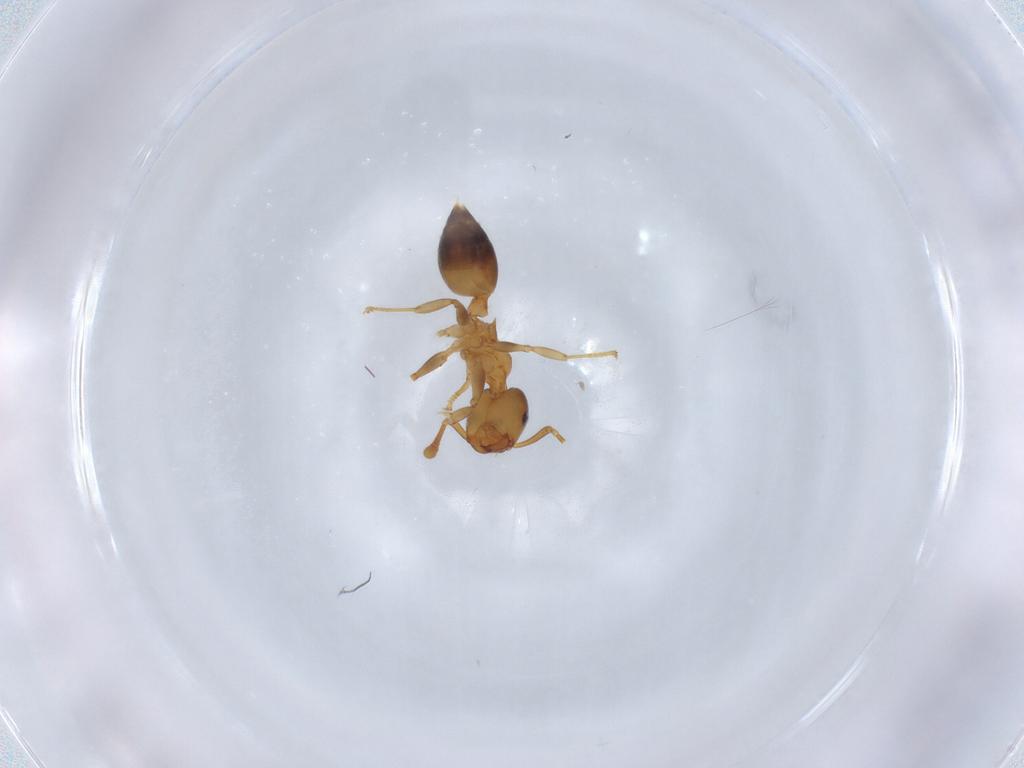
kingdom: Animalia
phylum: Arthropoda
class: Insecta
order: Hymenoptera
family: Formicidae
